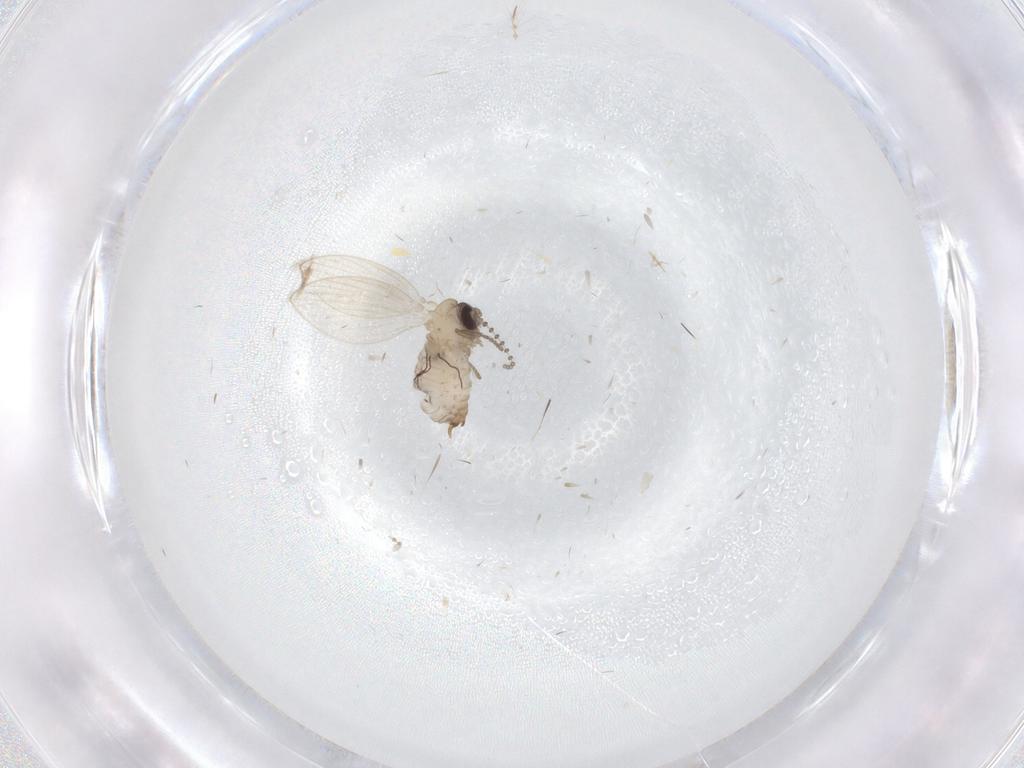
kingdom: Animalia
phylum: Arthropoda
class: Insecta
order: Diptera
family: Psychodidae
